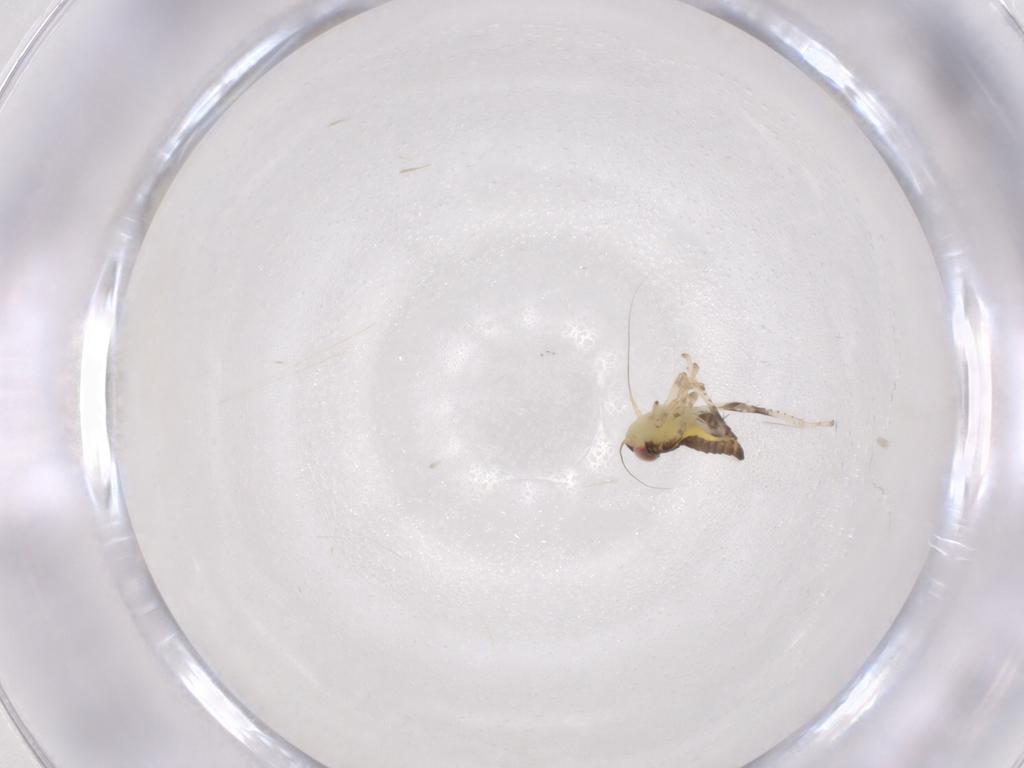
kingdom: Animalia
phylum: Arthropoda
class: Insecta
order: Hemiptera
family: Cicadellidae
